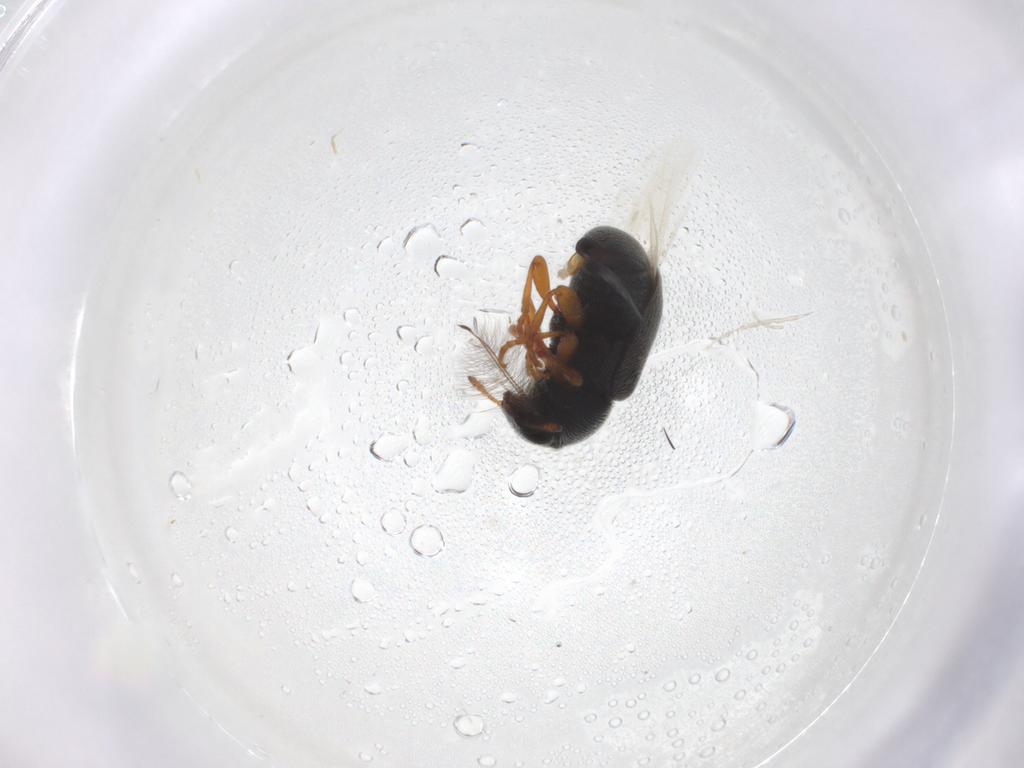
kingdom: Animalia
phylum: Arthropoda
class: Insecta
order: Coleoptera
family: Anthribidae
